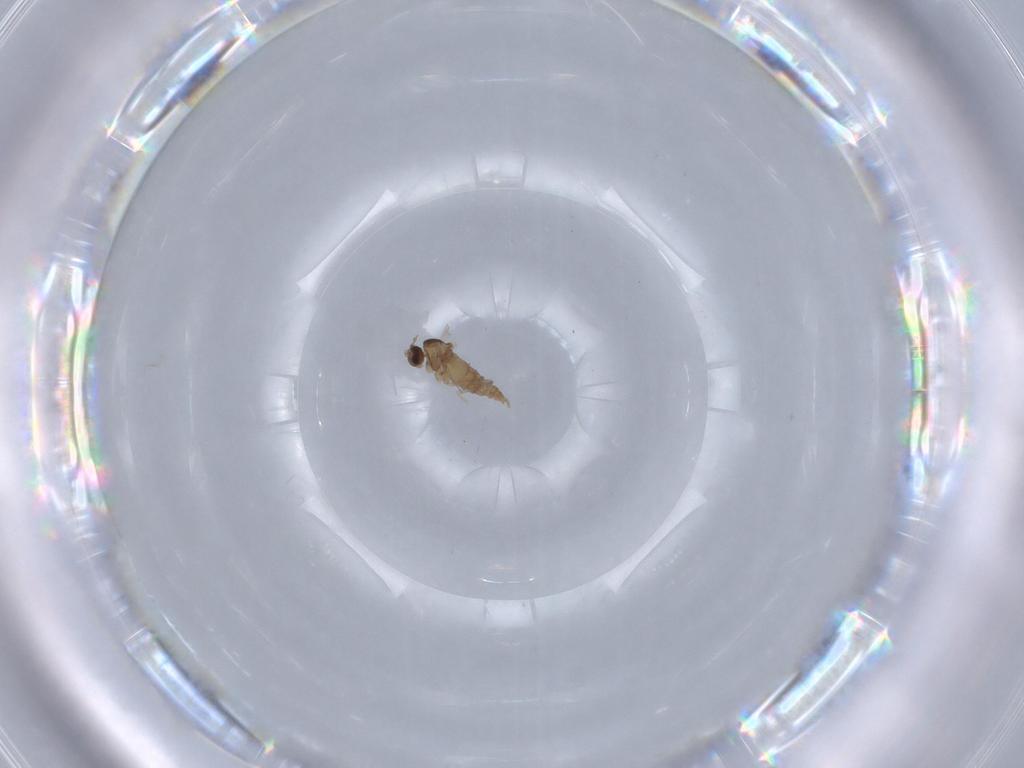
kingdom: Animalia
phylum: Arthropoda
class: Insecta
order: Diptera
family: Cecidomyiidae
